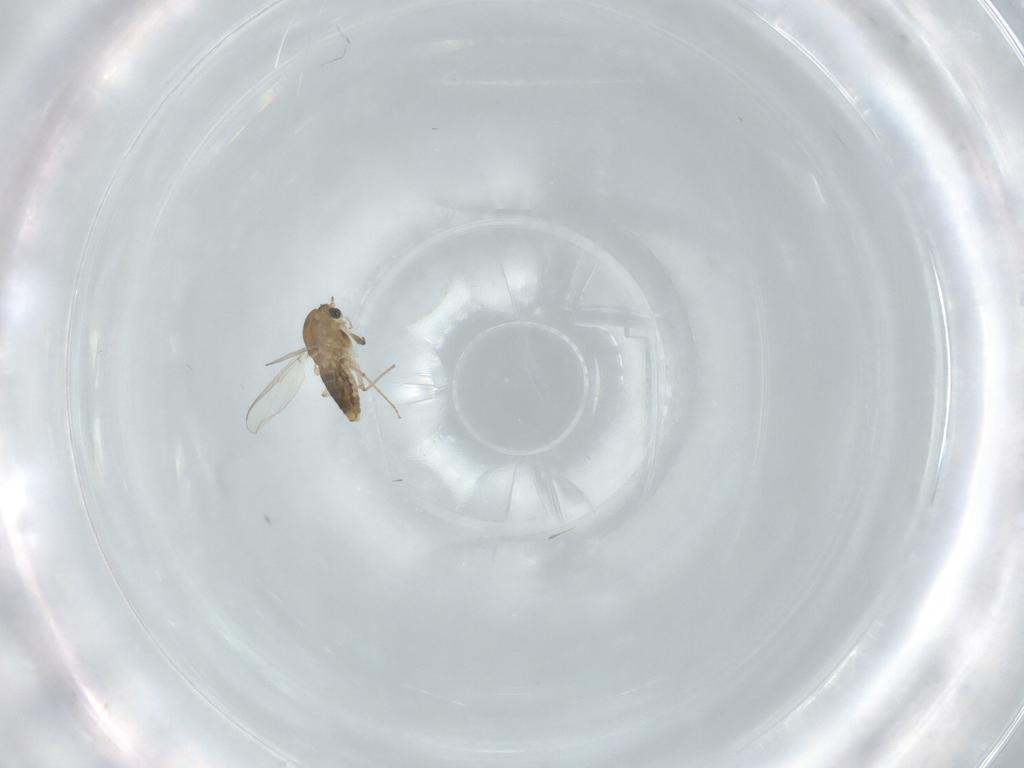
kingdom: Animalia
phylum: Arthropoda
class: Insecta
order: Diptera
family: Chironomidae
